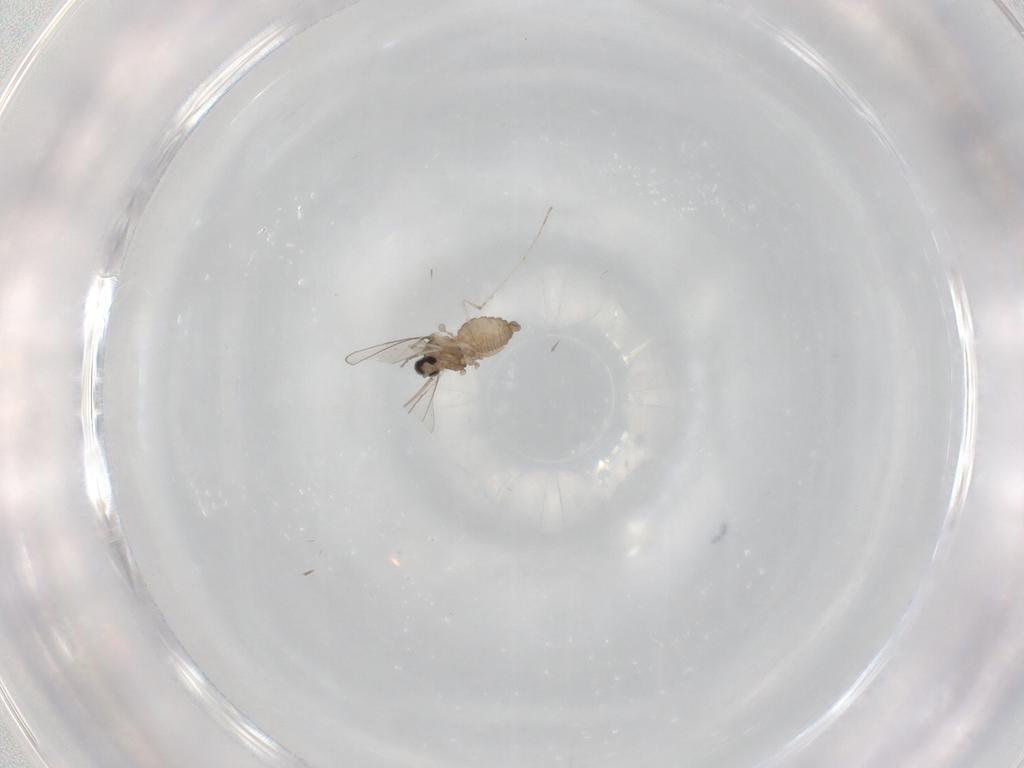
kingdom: Animalia
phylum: Arthropoda
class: Insecta
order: Diptera
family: Cecidomyiidae
